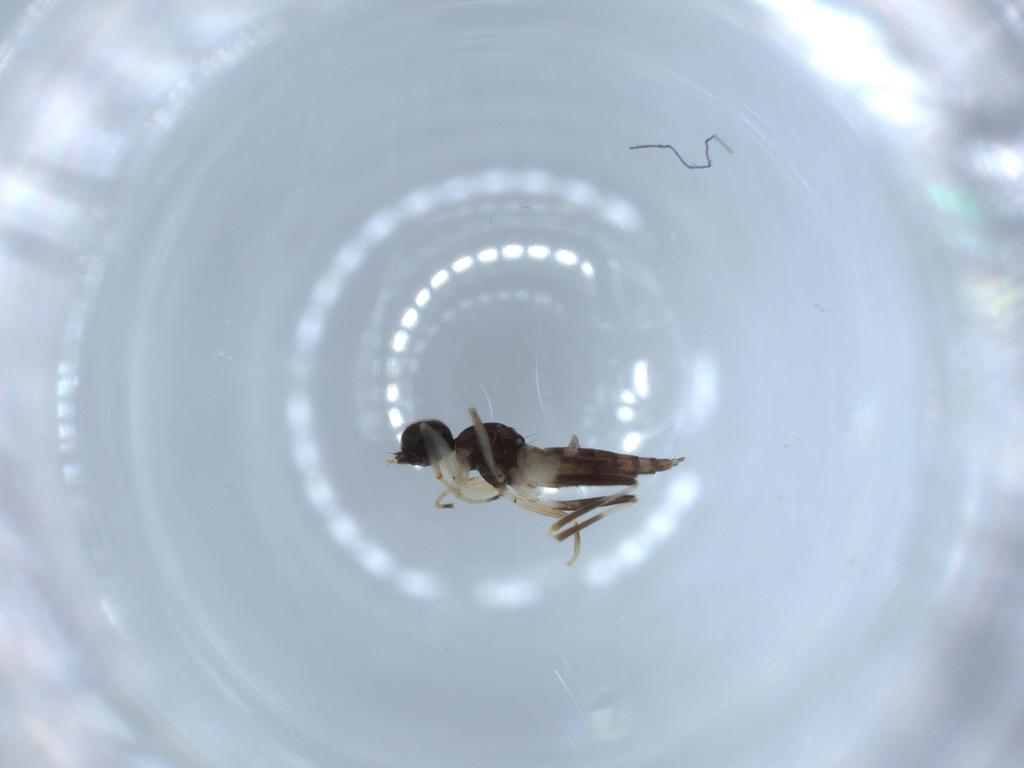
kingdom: Animalia
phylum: Arthropoda
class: Insecta
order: Diptera
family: Hybotidae
